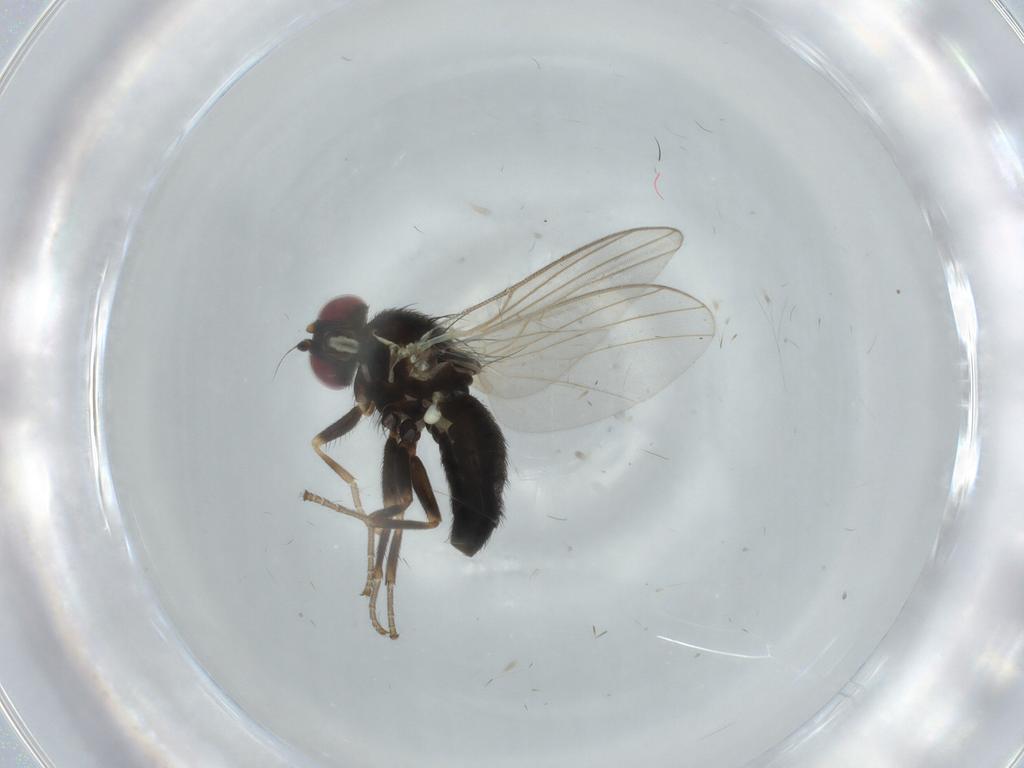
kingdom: Animalia
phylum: Arthropoda
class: Insecta
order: Diptera
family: Agromyzidae
